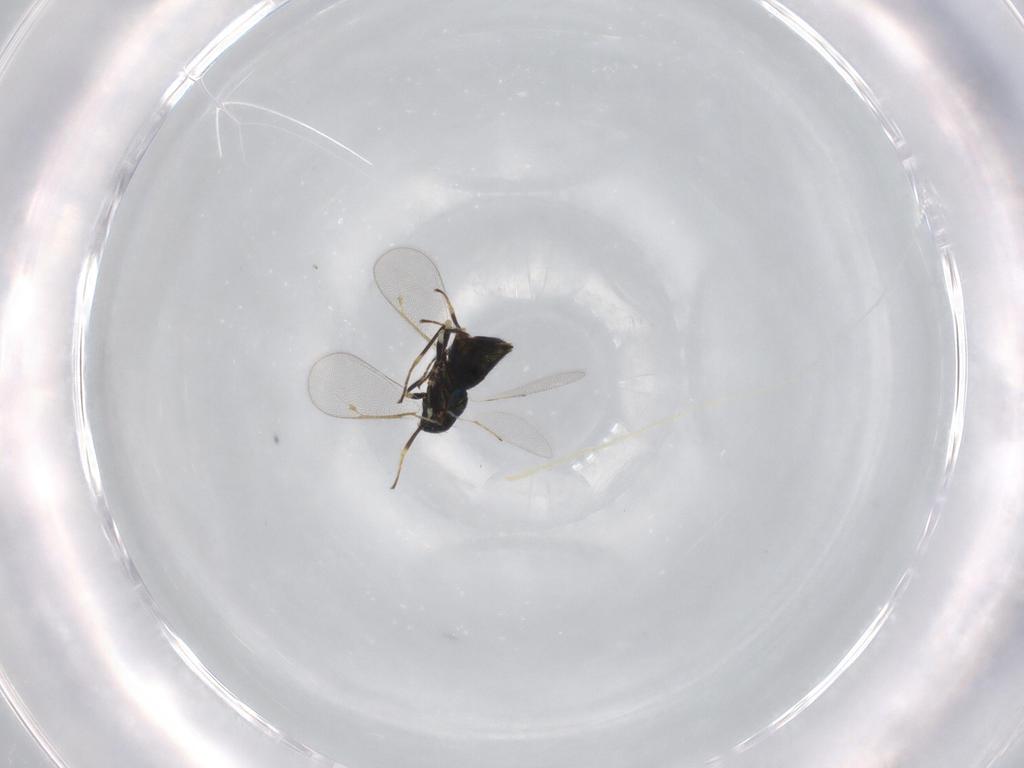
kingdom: Animalia
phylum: Arthropoda
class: Insecta
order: Hymenoptera
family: Eulophidae
